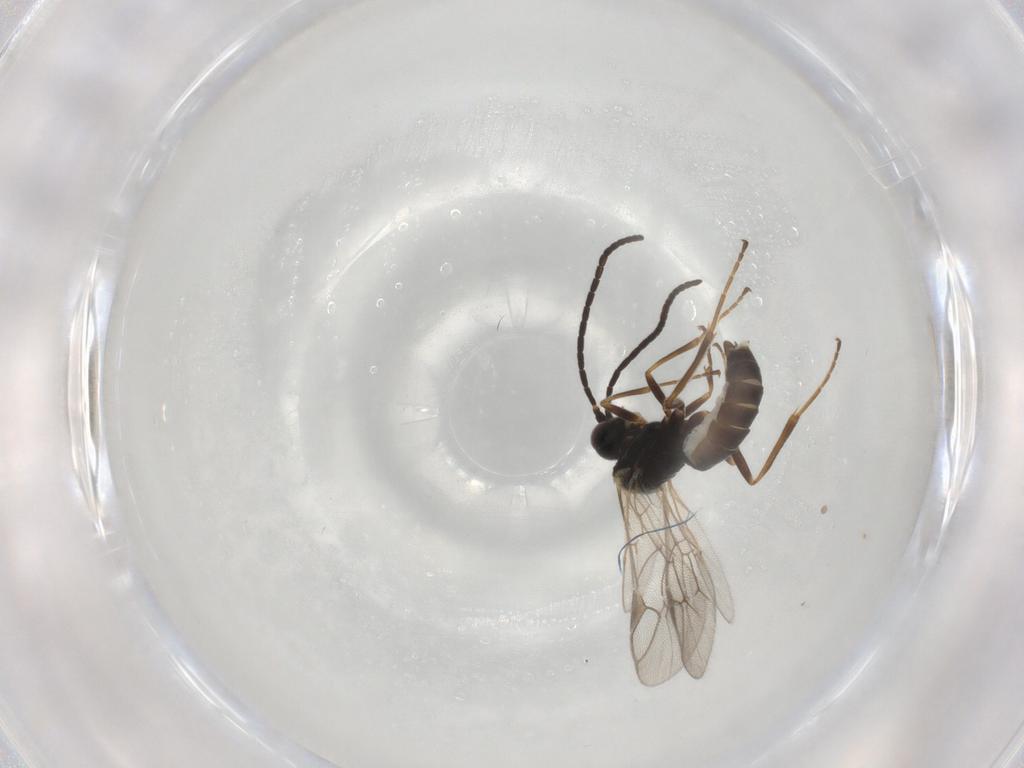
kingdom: Animalia
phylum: Arthropoda
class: Insecta
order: Hymenoptera
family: Ichneumonidae
